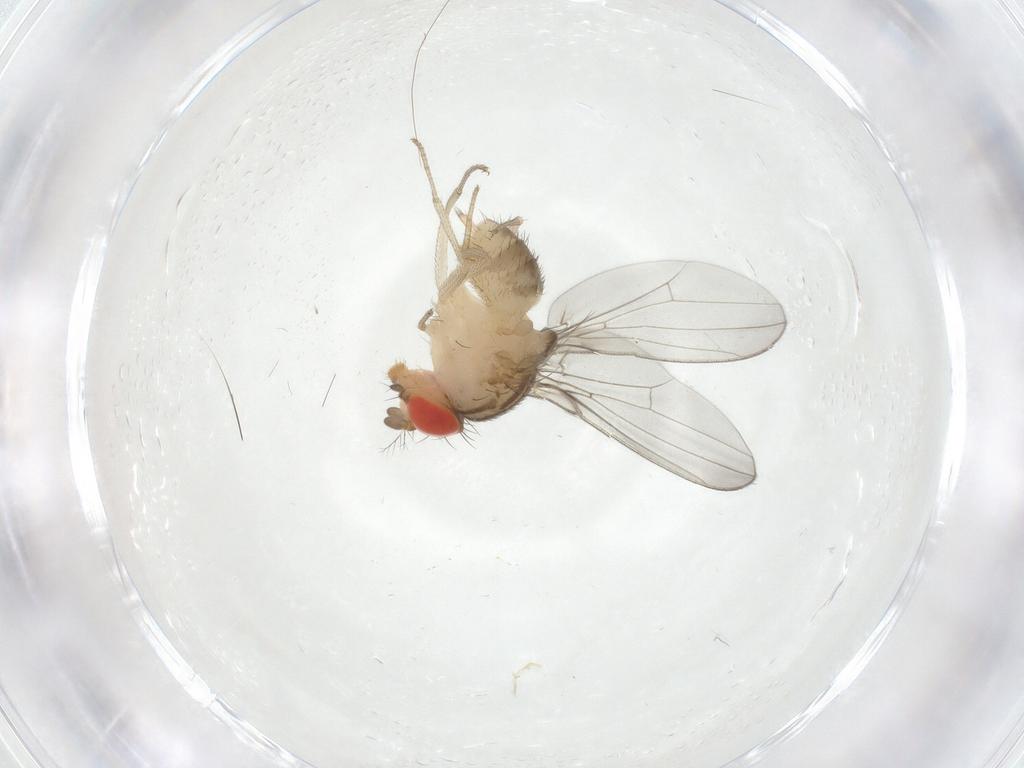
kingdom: Animalia
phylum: Arthropoda
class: Insecta
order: Diptera
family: Drosophilidae
